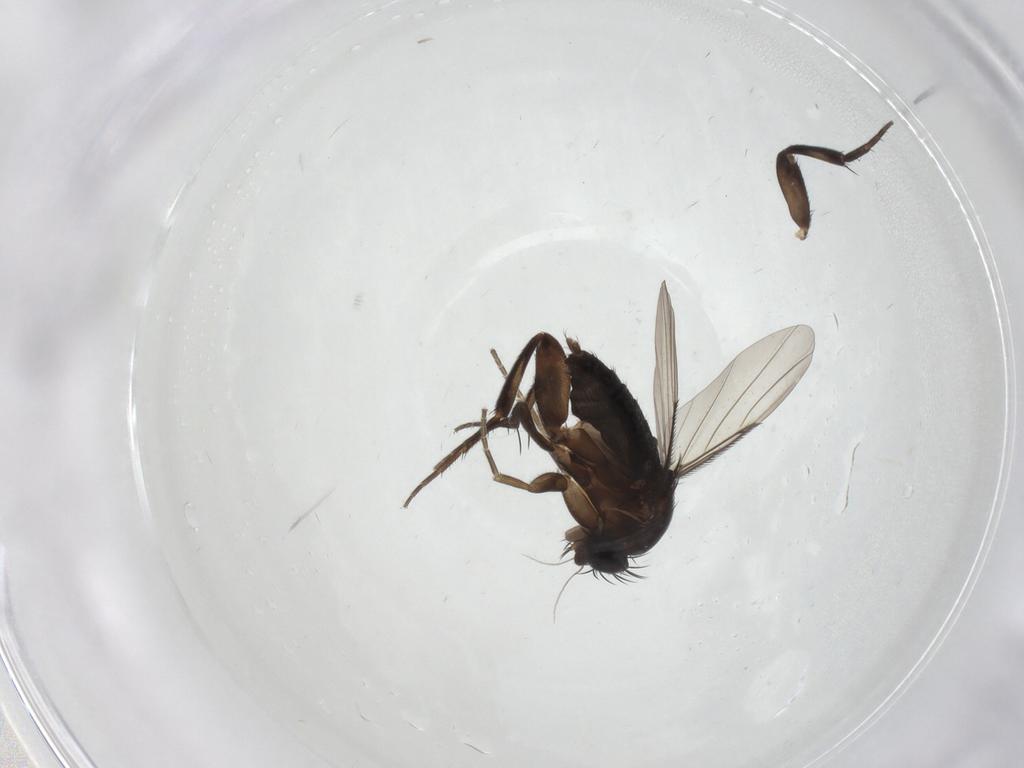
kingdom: Animalia
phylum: Arthropoda
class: Insecta
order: Diptera
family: Phoridae
